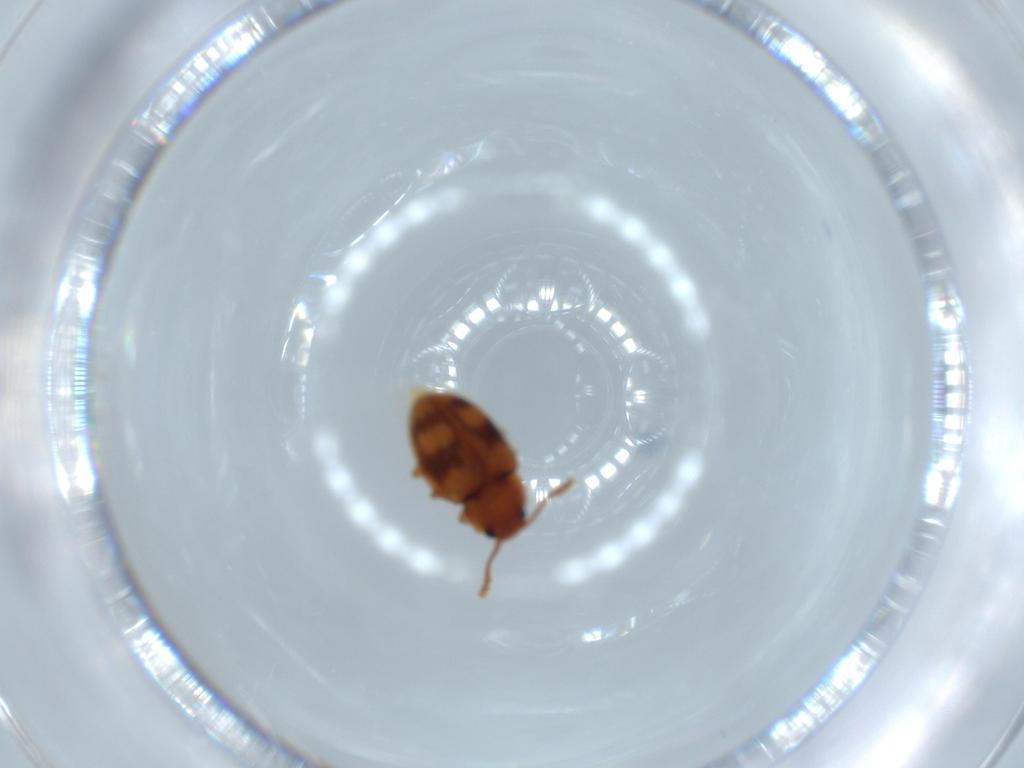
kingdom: Animalia
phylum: Arthropoda
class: Insecta
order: Coleoptera
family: Erotylidae
